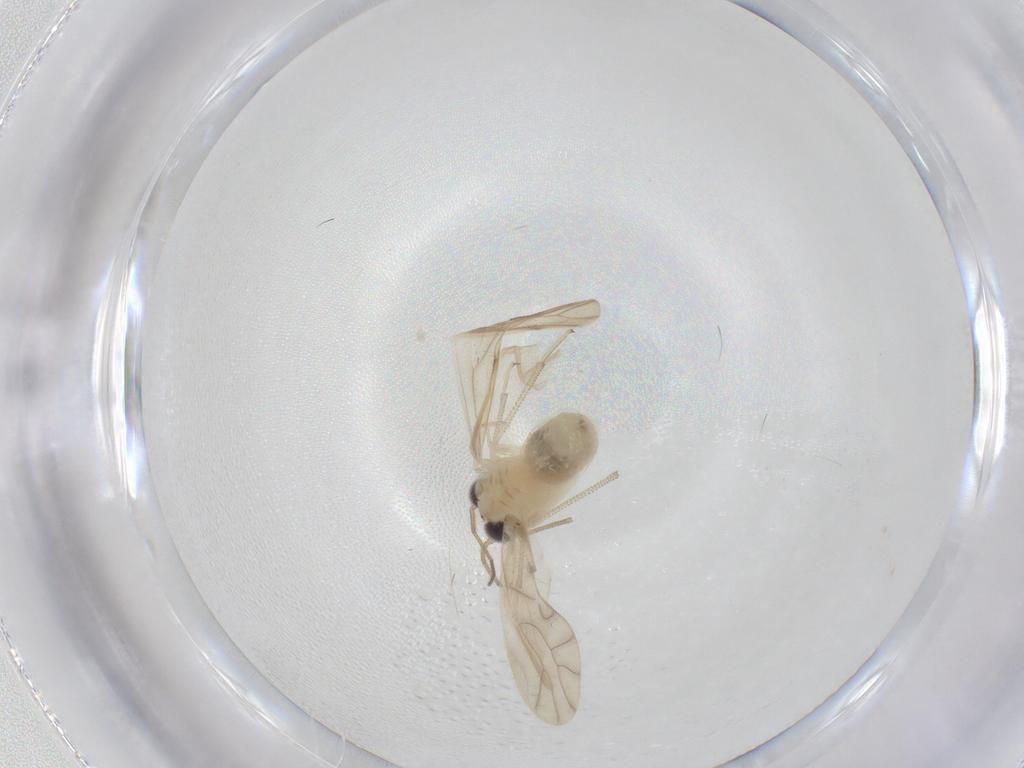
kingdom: Animalia
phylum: Arthropoda
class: Insecta
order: Psocodea
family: Caeciliusidae
